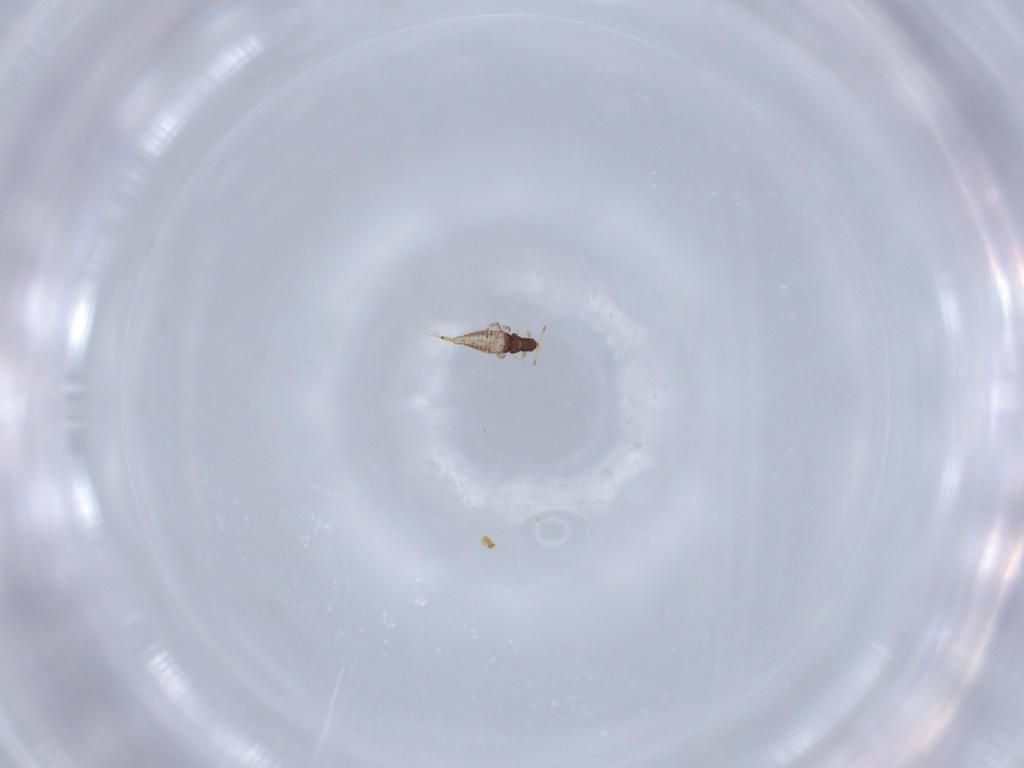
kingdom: Animalia
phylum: Arthropoda
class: Insecta
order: Thysanoptera
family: Phlaeothripidae
